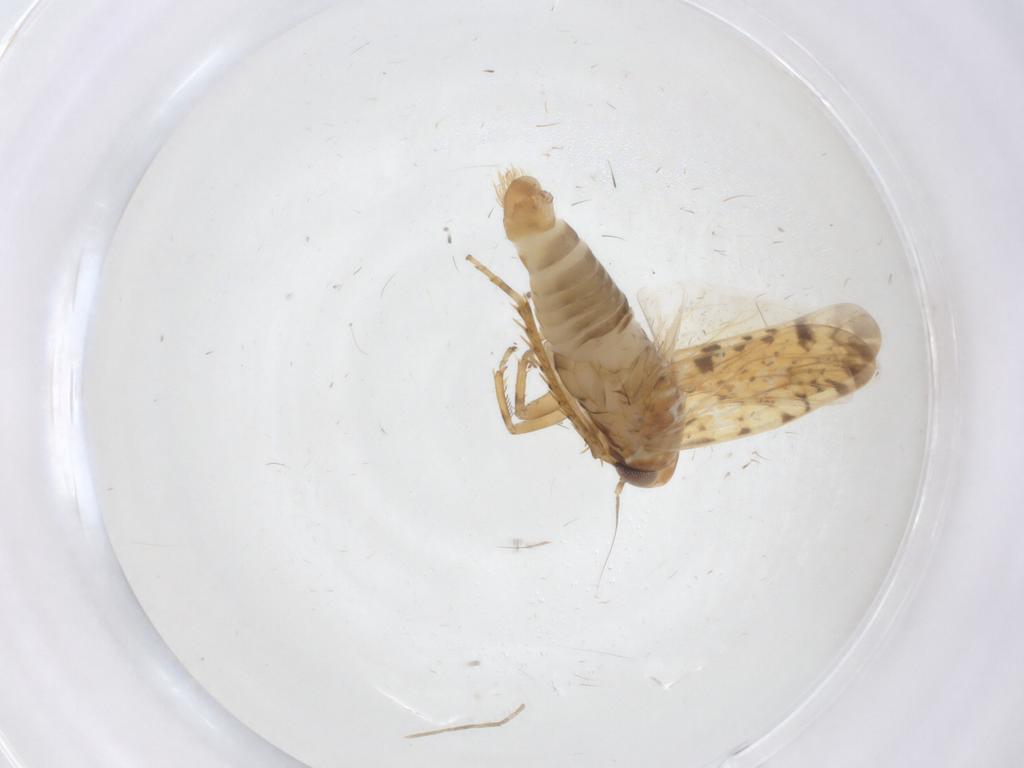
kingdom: Animalia
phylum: Arthropoda
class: Insecta
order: Hemiptera
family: Cicadellidae
